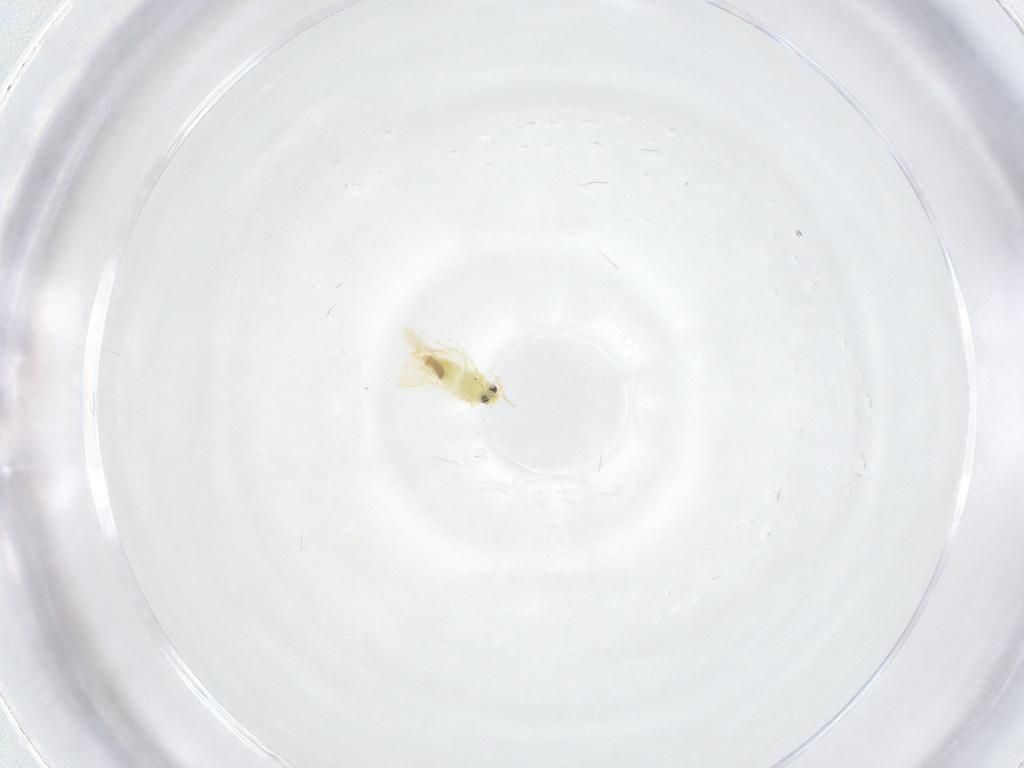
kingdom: Animalia
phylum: Arthropoda
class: Insecta
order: Hemiptera
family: Aleyrodidae
